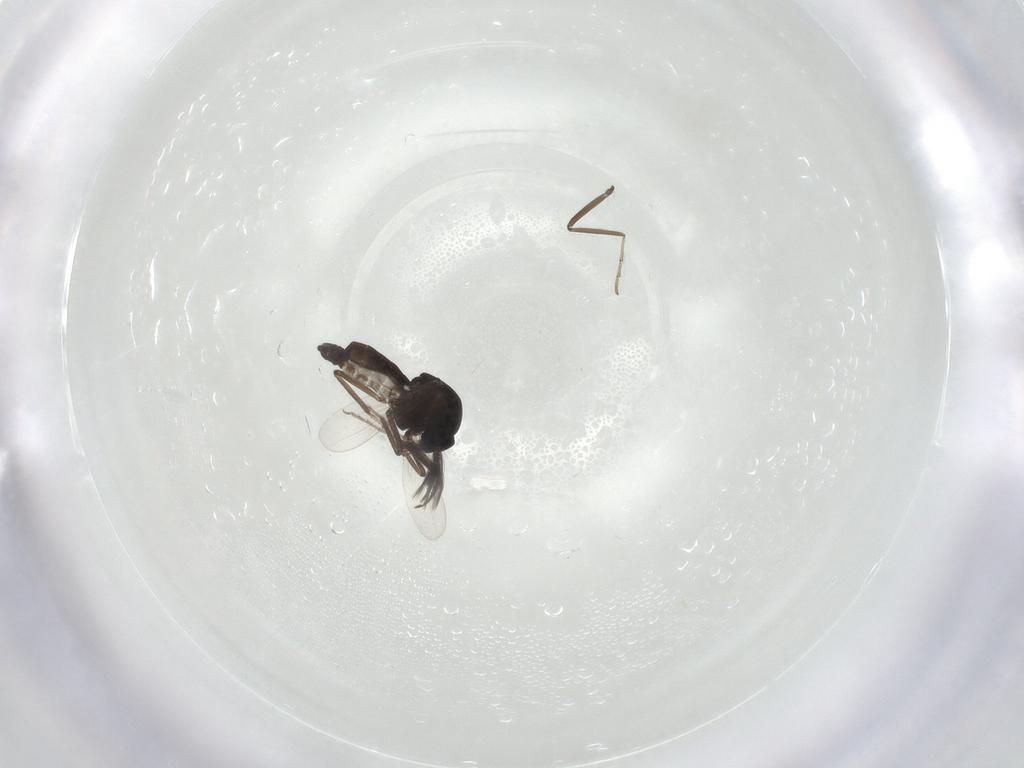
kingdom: Animalia
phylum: Arthropoda
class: Insecta
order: Diptera
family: Ceratopogonidae
